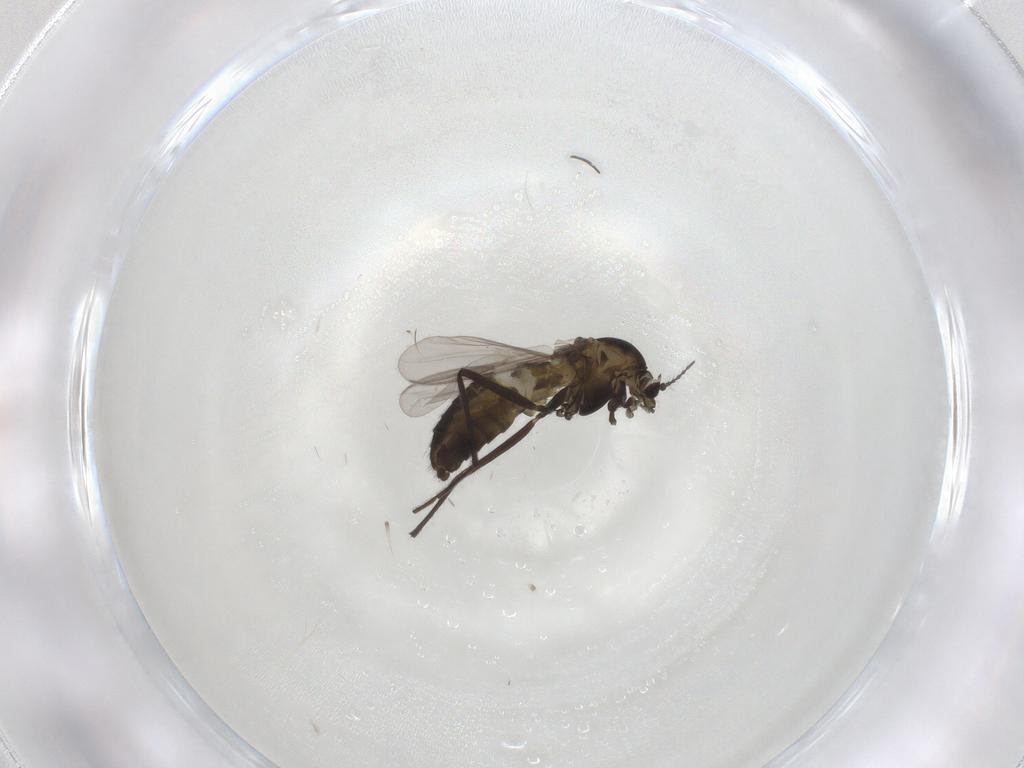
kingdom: Animalia
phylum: Arthropoda
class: Insecta
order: Diptera
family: Chironomidae
